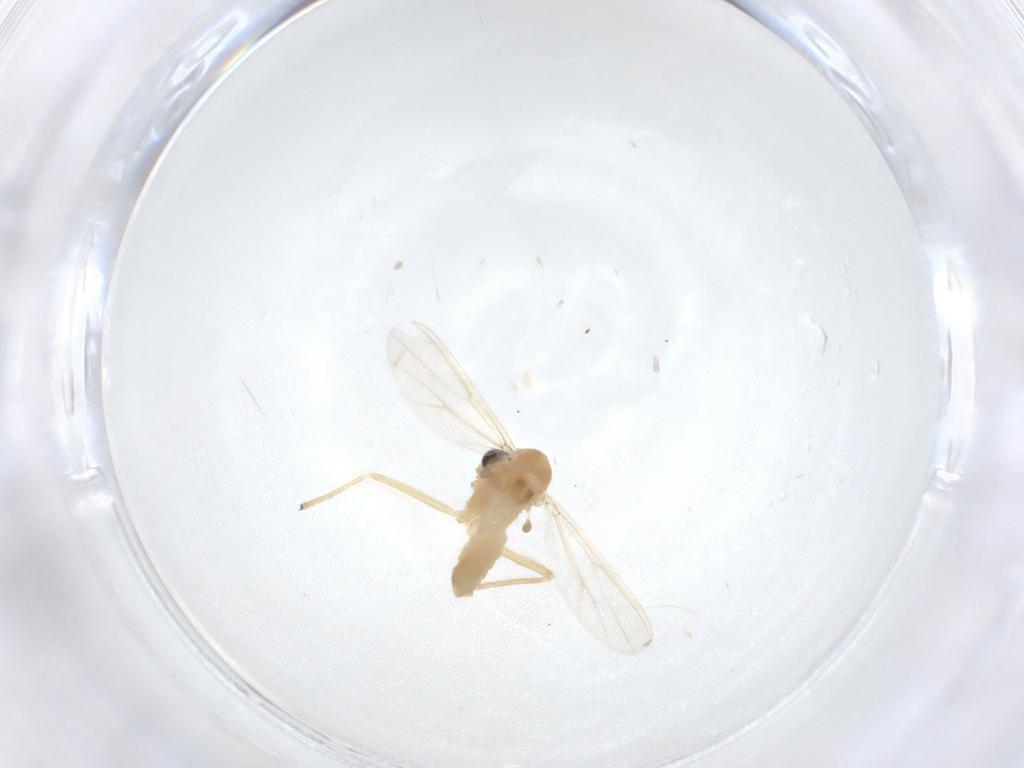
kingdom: Animalia
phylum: Arthropoda
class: Insecta
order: Diptera
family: Chironomidae
